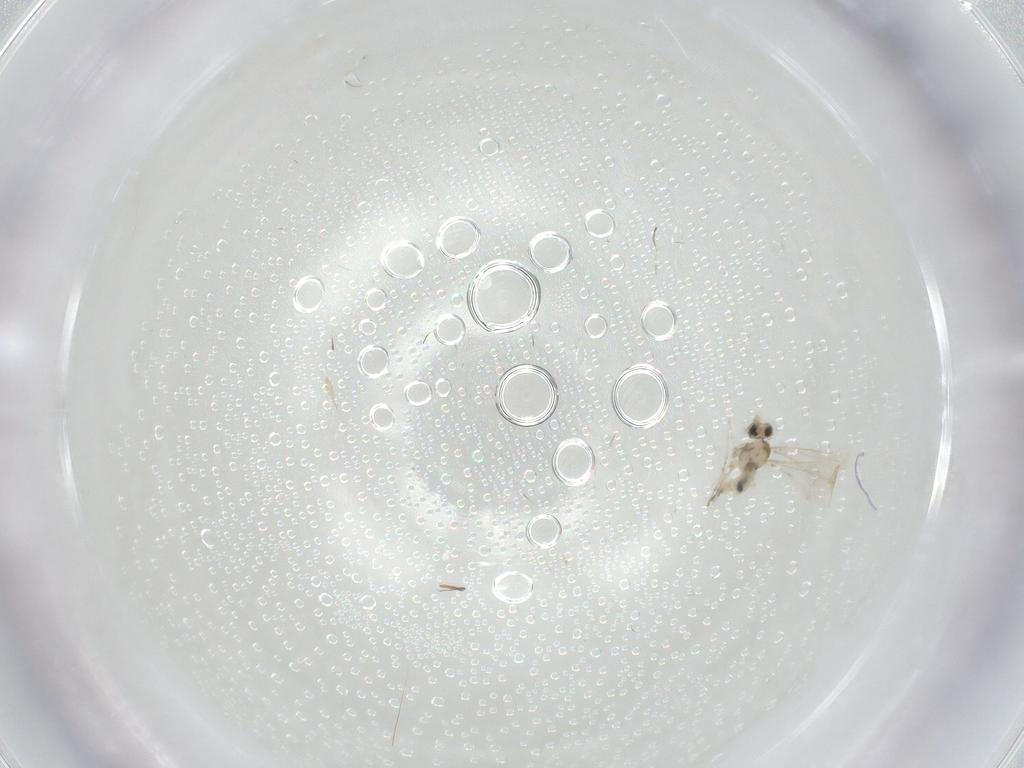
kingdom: Animalia
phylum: Arthropoda
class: Insecta
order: Diptera
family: Cecidomyiidae
